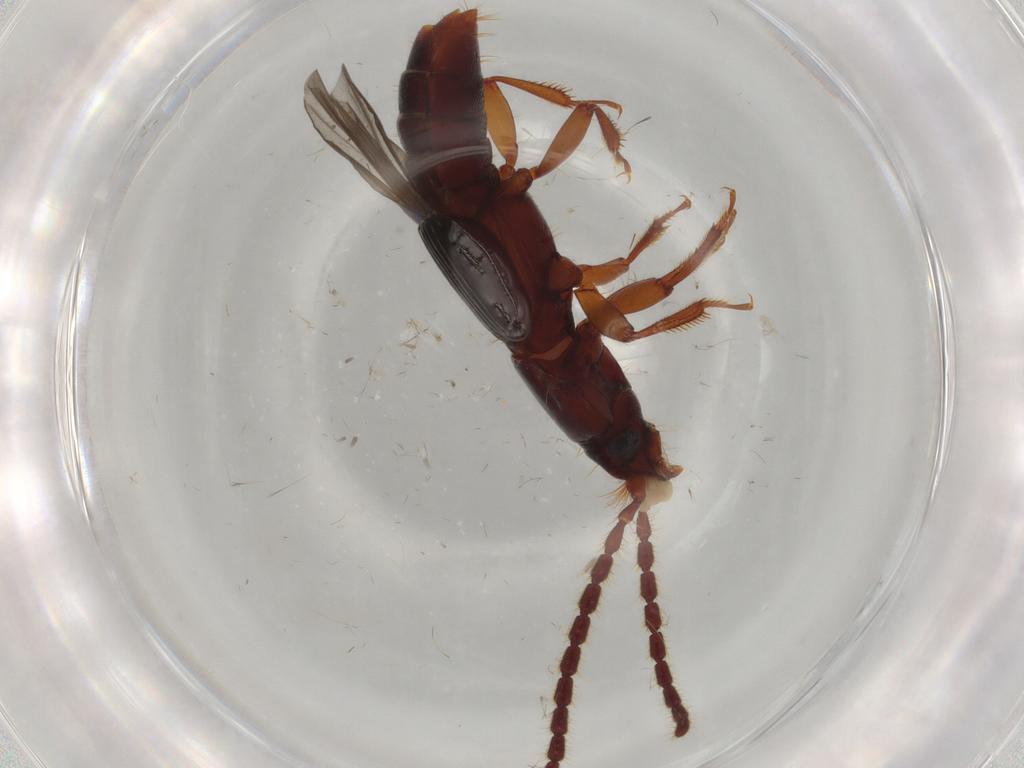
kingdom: Animalia
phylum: Arthropoda
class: Insecta
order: Coleoptera
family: Staphylinidae
